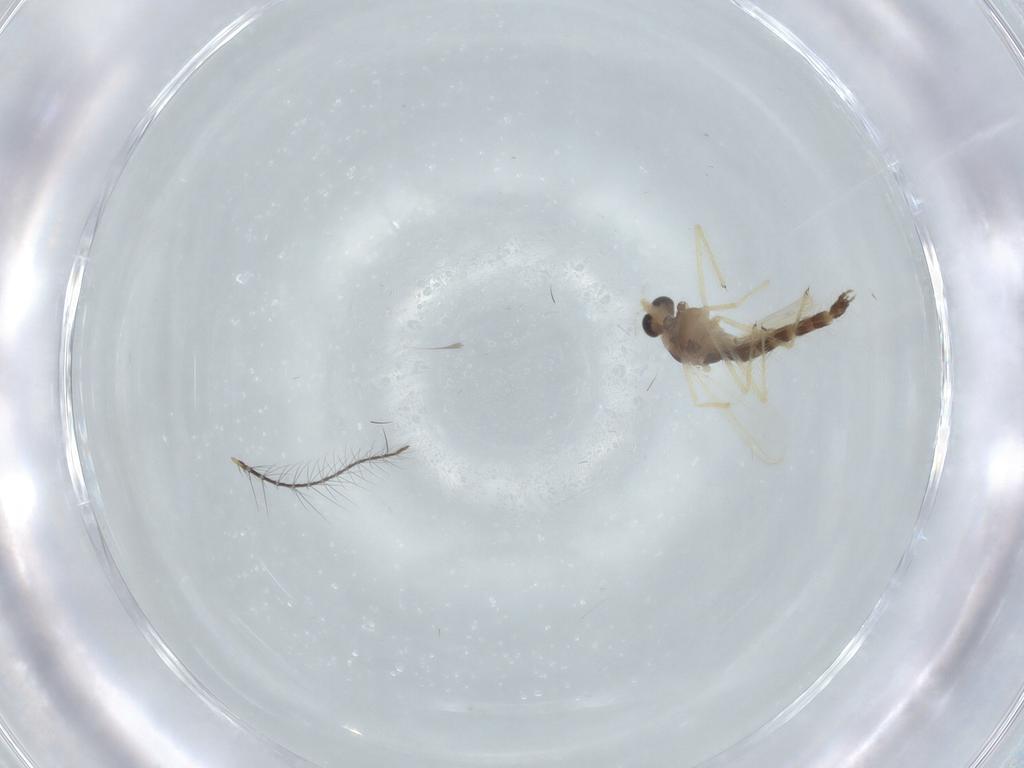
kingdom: Animalia
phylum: Arthropoda
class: Insecta
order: Diptera
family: Chironomidae
